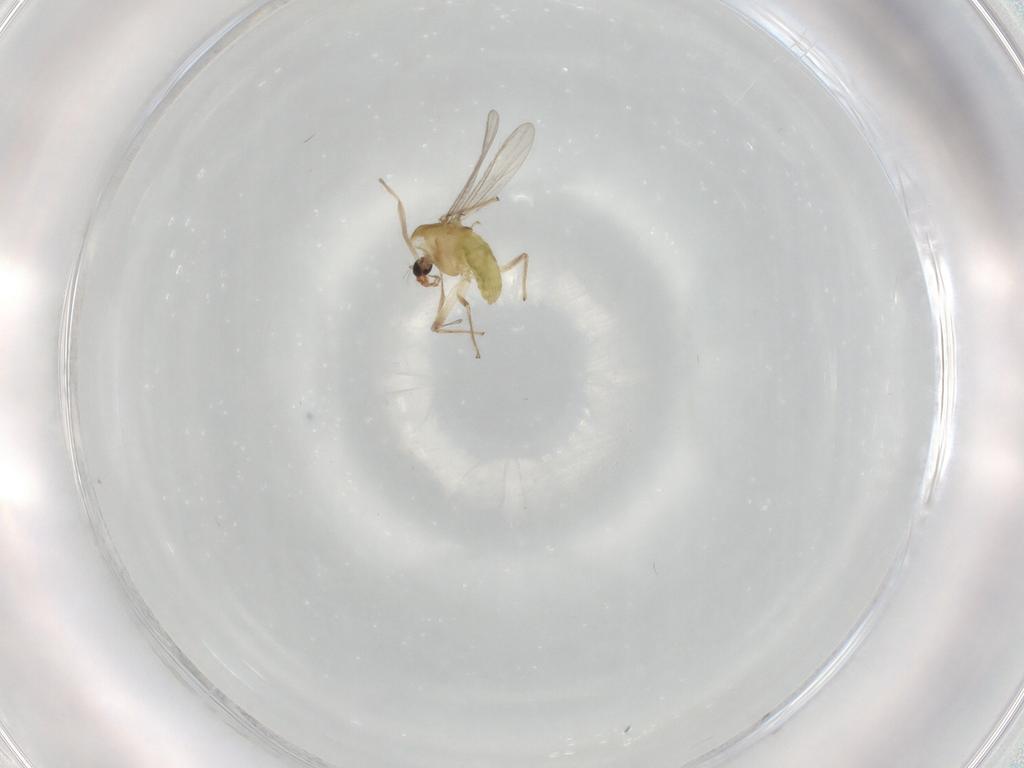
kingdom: Animalia
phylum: Arthropoda
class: Insecta
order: Diptera
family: Chironomidae
